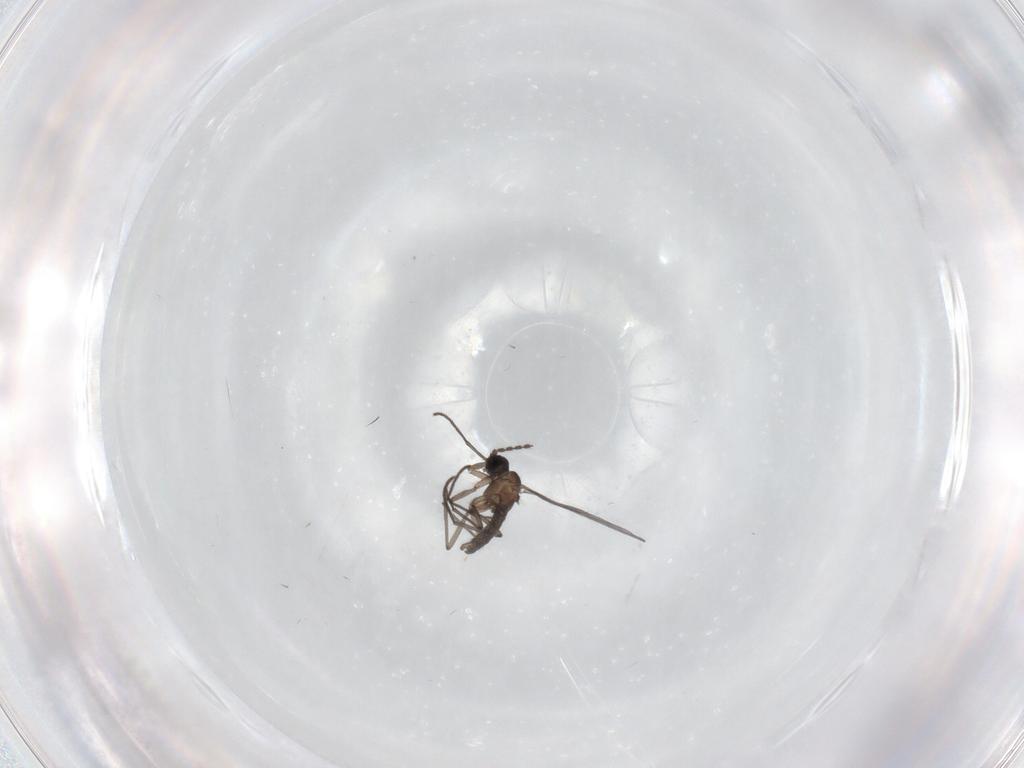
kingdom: Animalia
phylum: Arthropoda
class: Insecta
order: Diptera
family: Sciaridae
